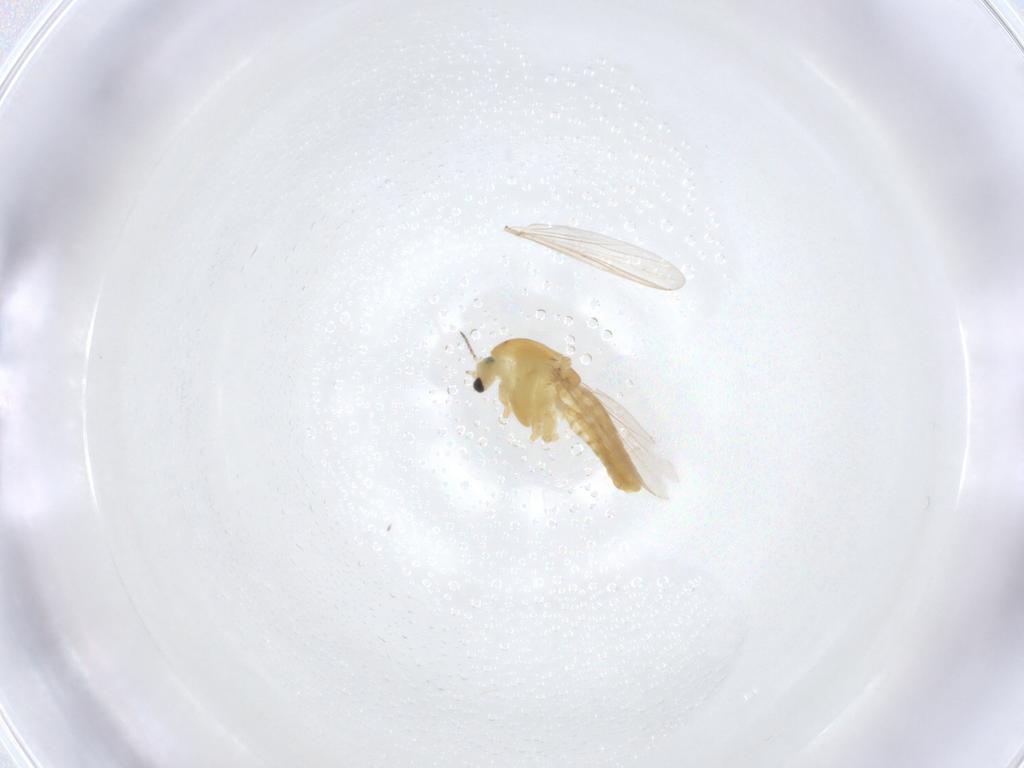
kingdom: Animalia
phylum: Arthropoda
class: Insecta
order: Diptera
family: Chironomidae
